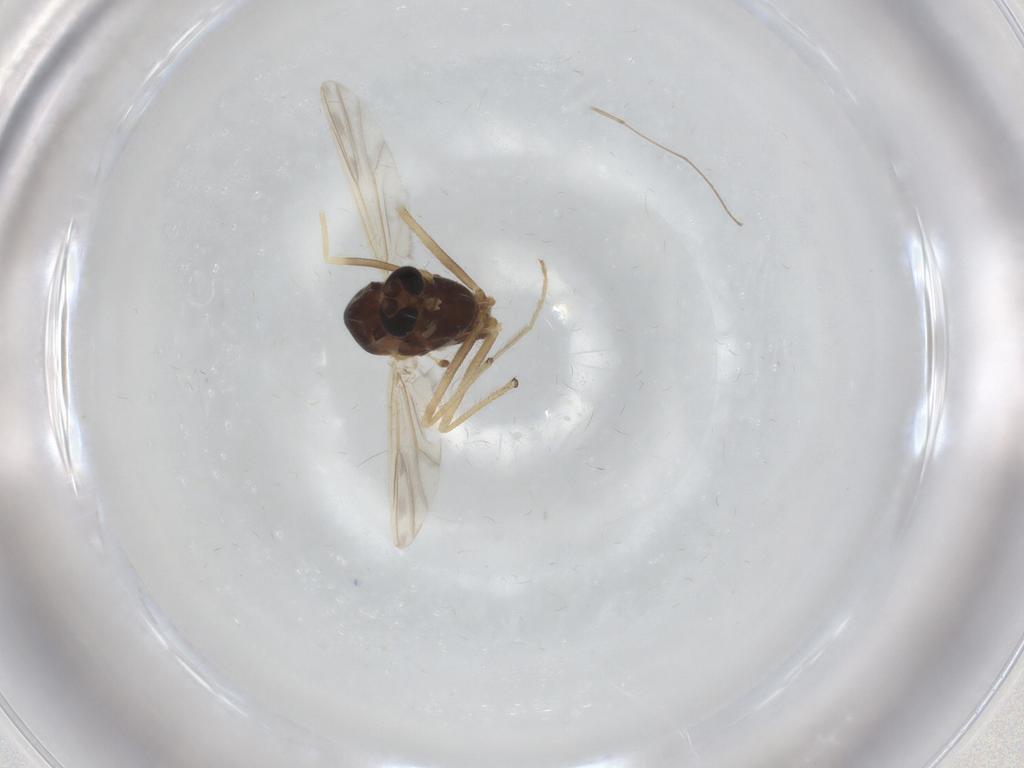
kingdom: Animalia
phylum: Arthropoda
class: Insecta
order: Diptera
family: Chironomidae
